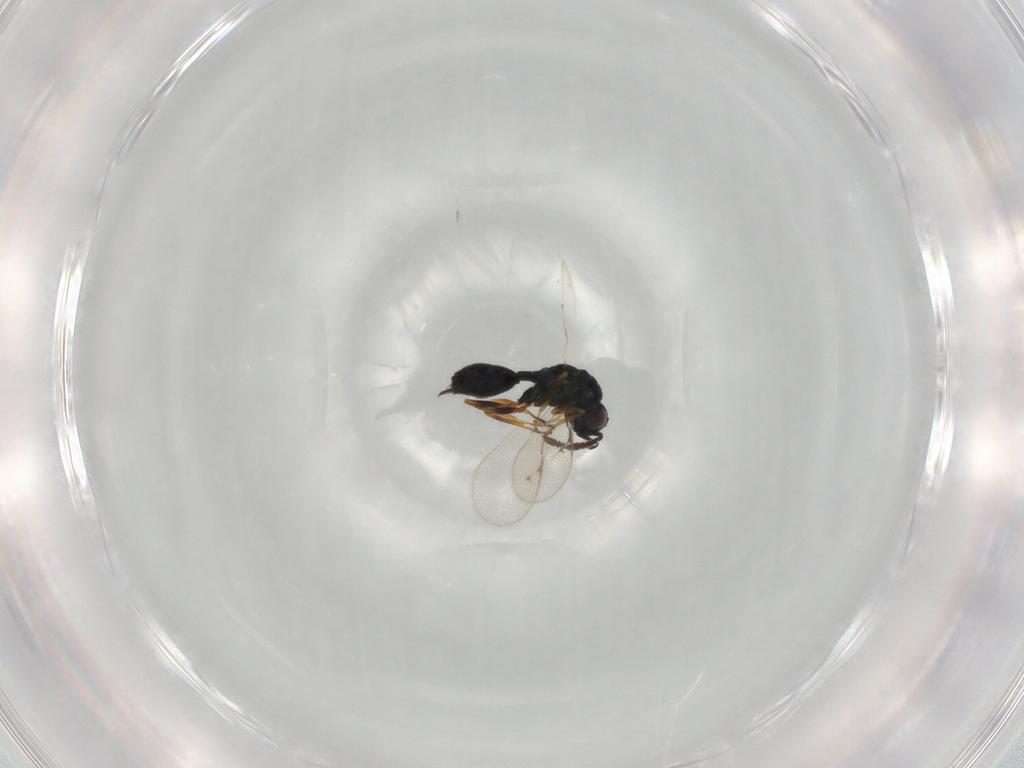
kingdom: Animalia
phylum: Arthropoda
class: Insecta
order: Hymenoptera
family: Pteromalidae
